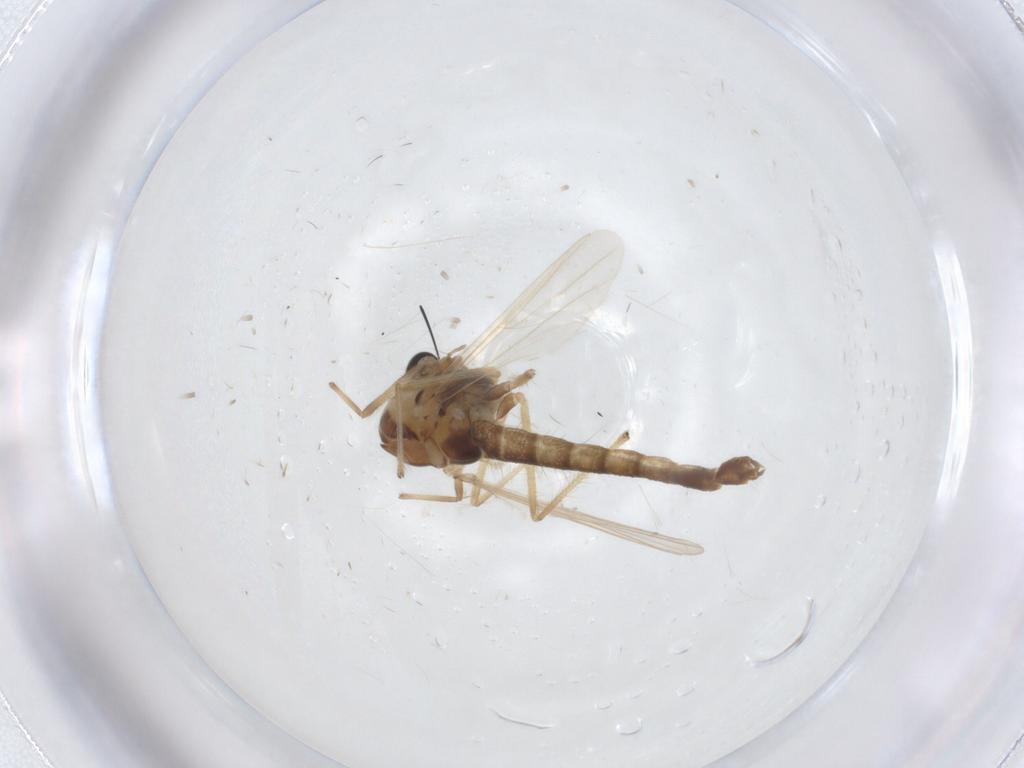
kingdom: Animalia
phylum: Arthropoda
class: Insecta
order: Diptera
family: Chironomidae
